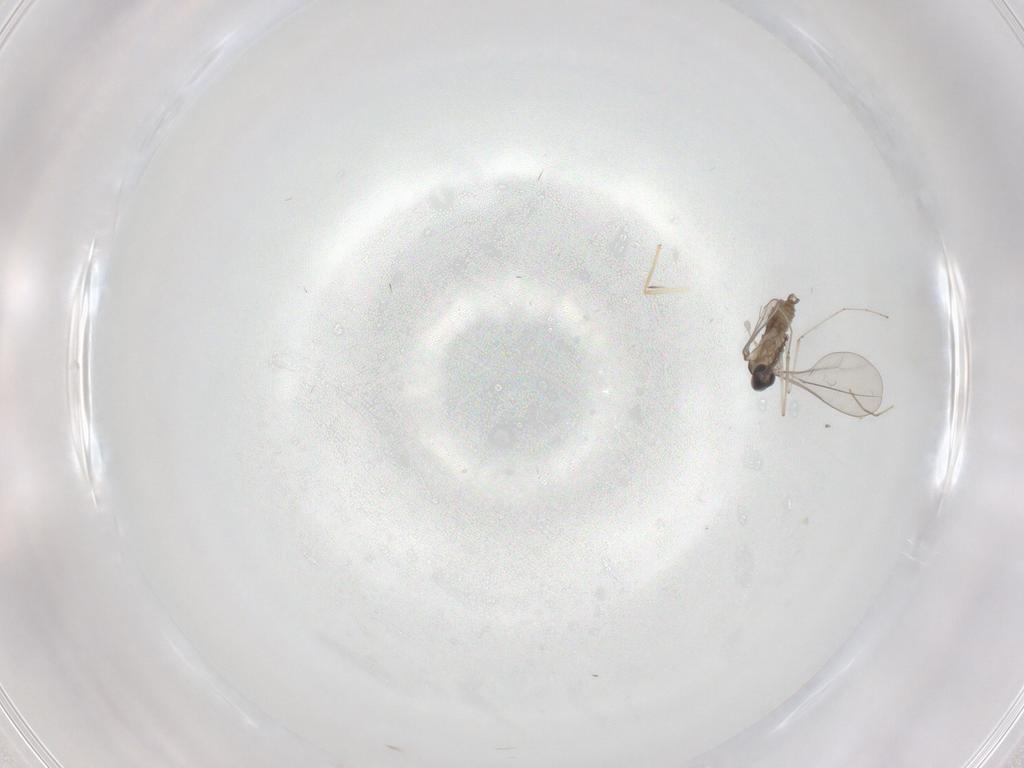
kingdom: Animalia
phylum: Arthropoda
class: Insecta
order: Diptera
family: Cecidomyiidae
